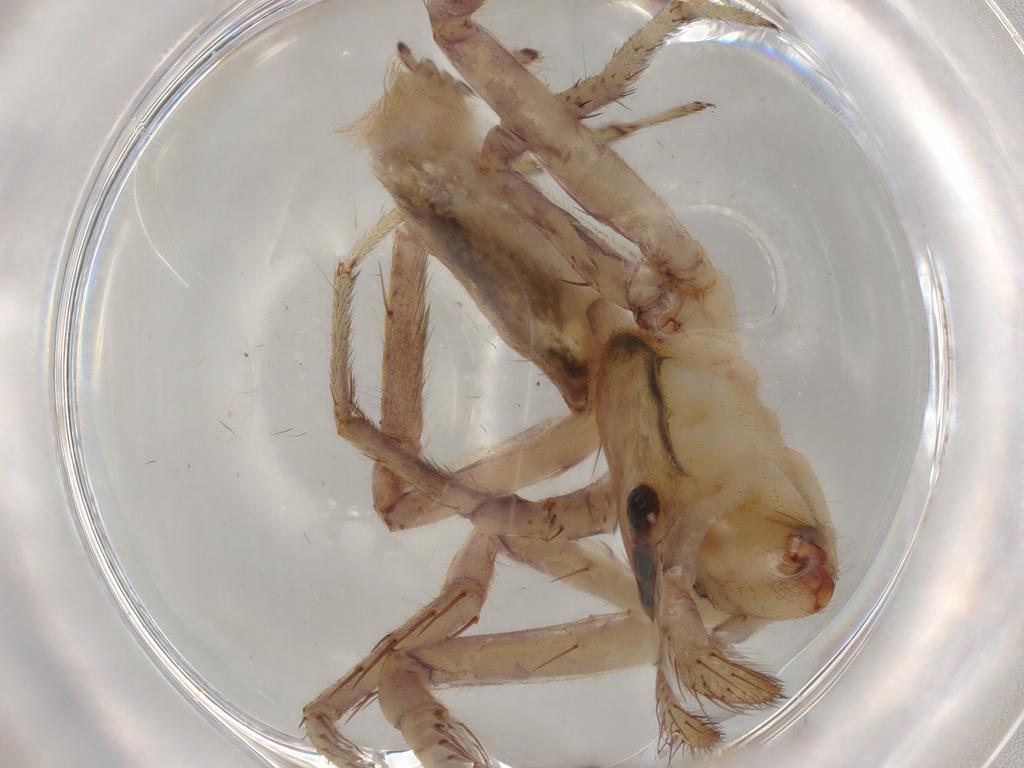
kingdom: Animalia
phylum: Arthropoda
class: Arachnida
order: Araneae
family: Senoculidae
